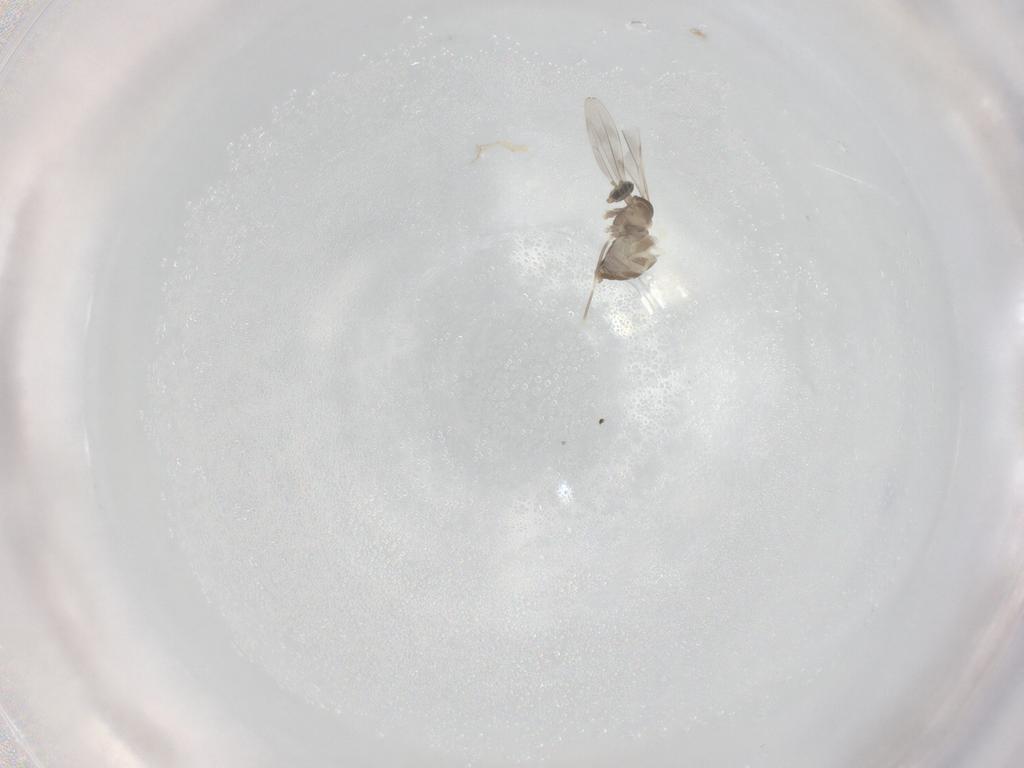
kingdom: Animalia
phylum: Arthropoda
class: Insecta
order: Diptera
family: Cecidomyiidae
